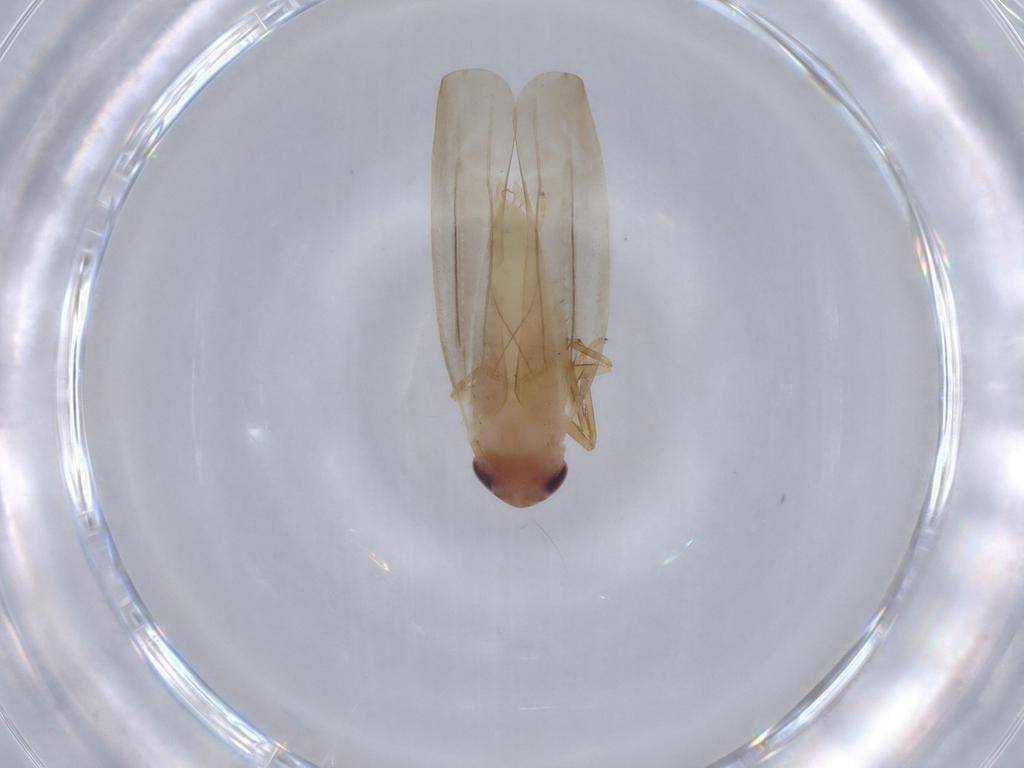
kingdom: Animalia
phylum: Arthropoda
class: Insecta
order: Hemiptera
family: Cicadellidae
